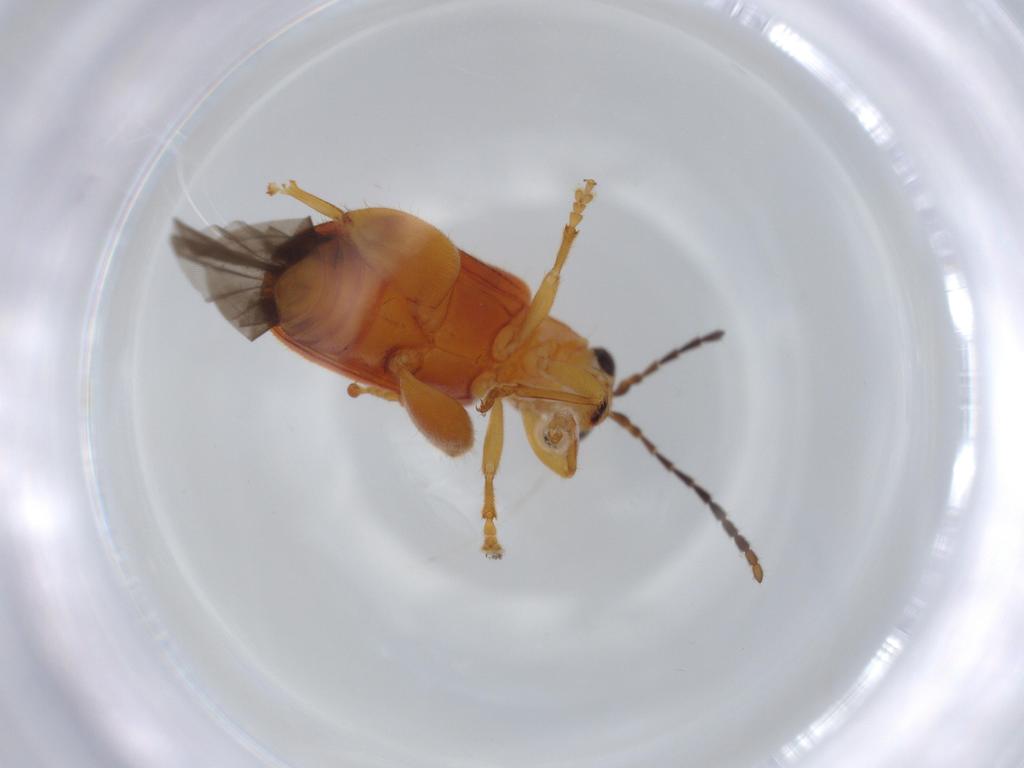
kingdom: Animalia
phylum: Arthropoda
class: Insecta
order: Coleoptera
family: Chrysomelidae
